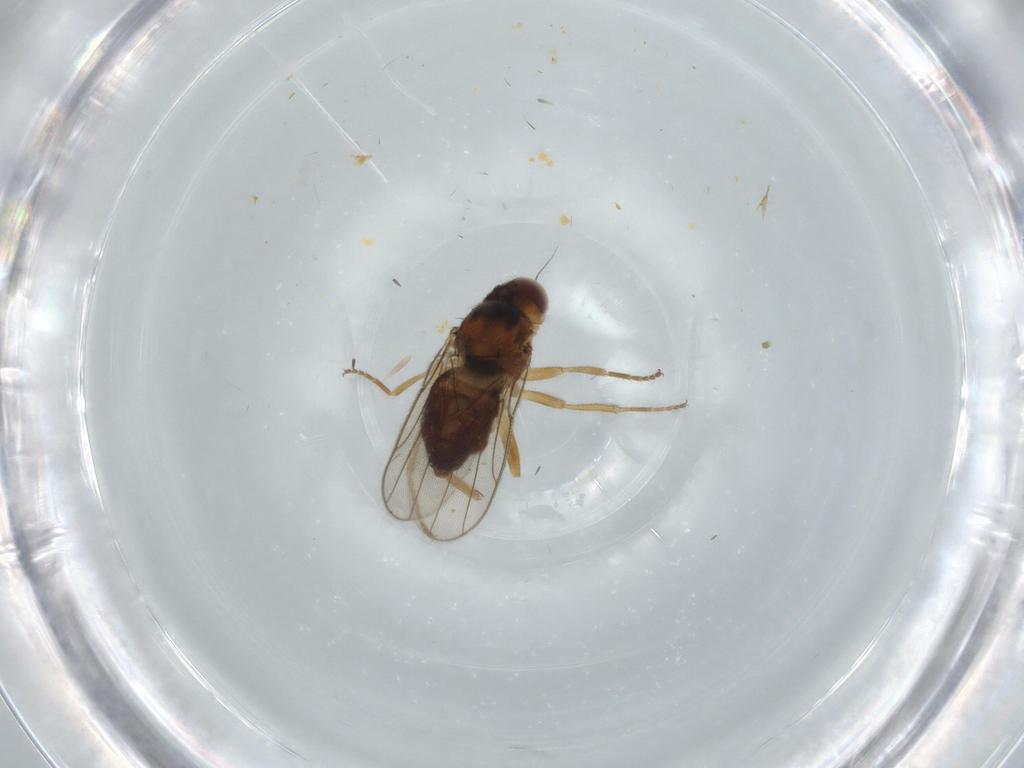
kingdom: Animalia
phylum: Arthropoda
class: Insecta
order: Diptera
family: Chloropidae
